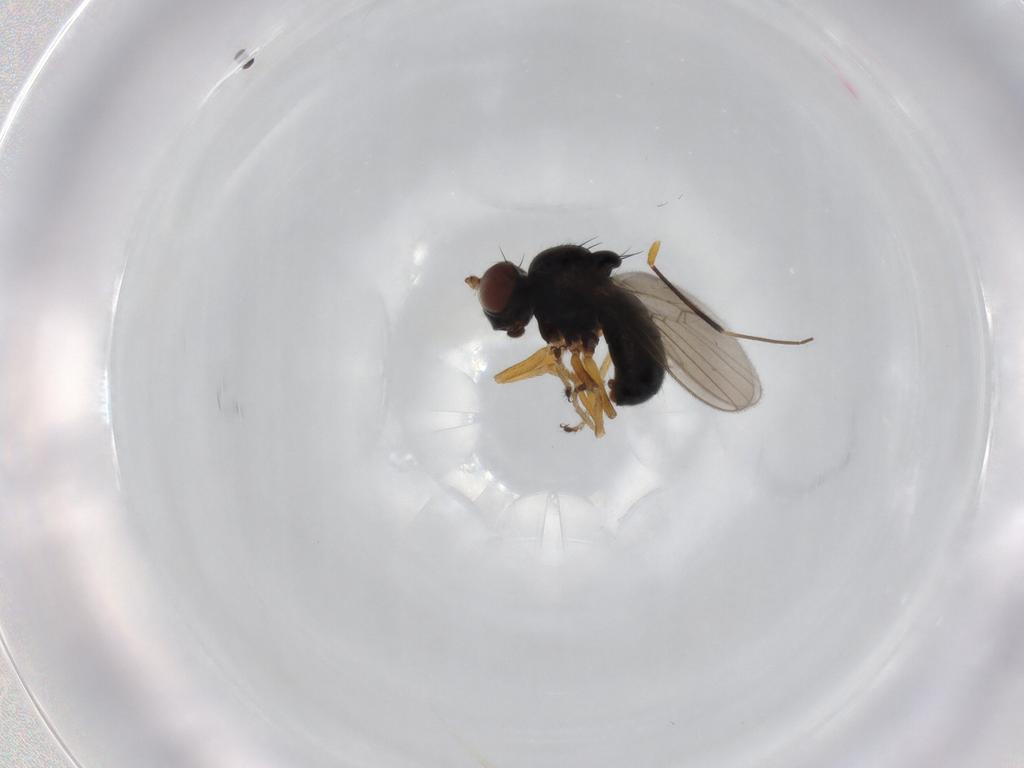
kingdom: Animalia
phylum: Arthropoda
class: Insecta
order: Diptera
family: Ephydridae
